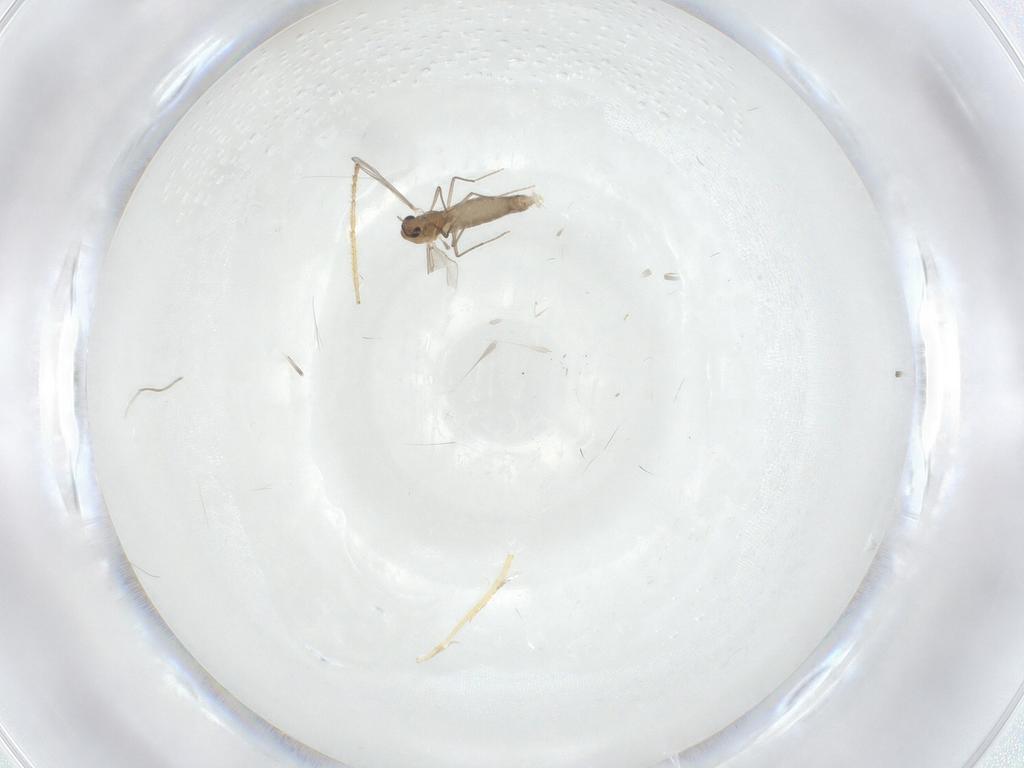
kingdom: Animalia
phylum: Arthropoda
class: Insecta
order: Diptera
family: Chironomidae
